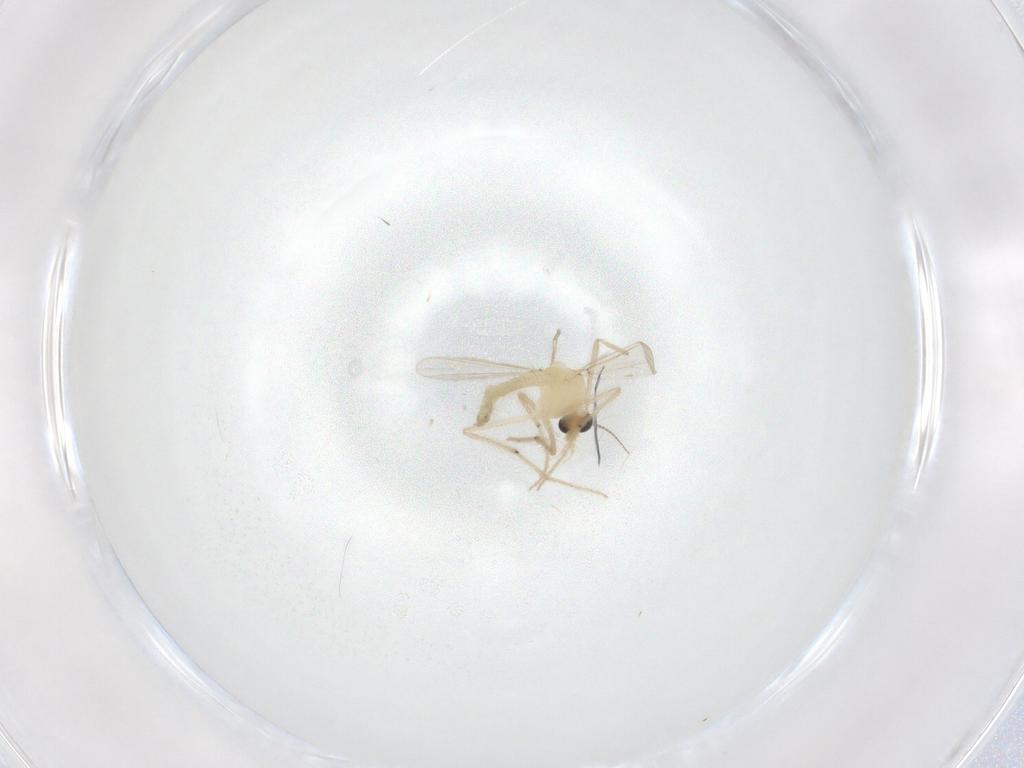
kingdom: Animalia
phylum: Arthropoda
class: Insecta
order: Diptera
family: Chironomidae
